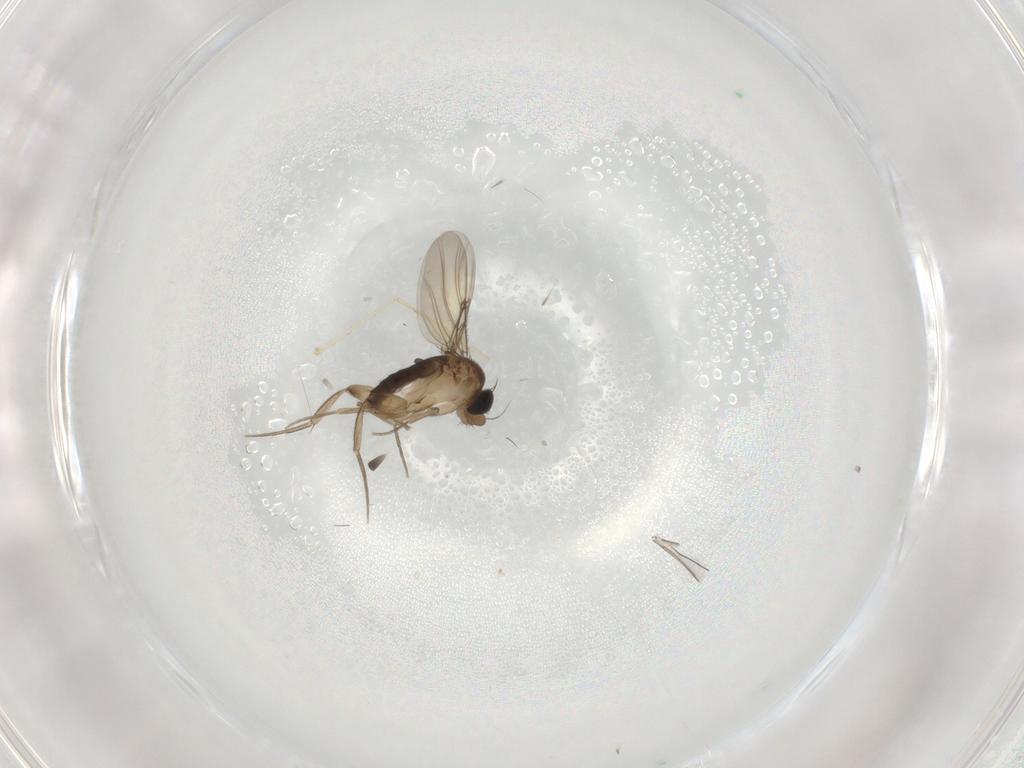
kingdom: Animalia
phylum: Arthropoda
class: Insecta
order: Diptera
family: Phoridae
